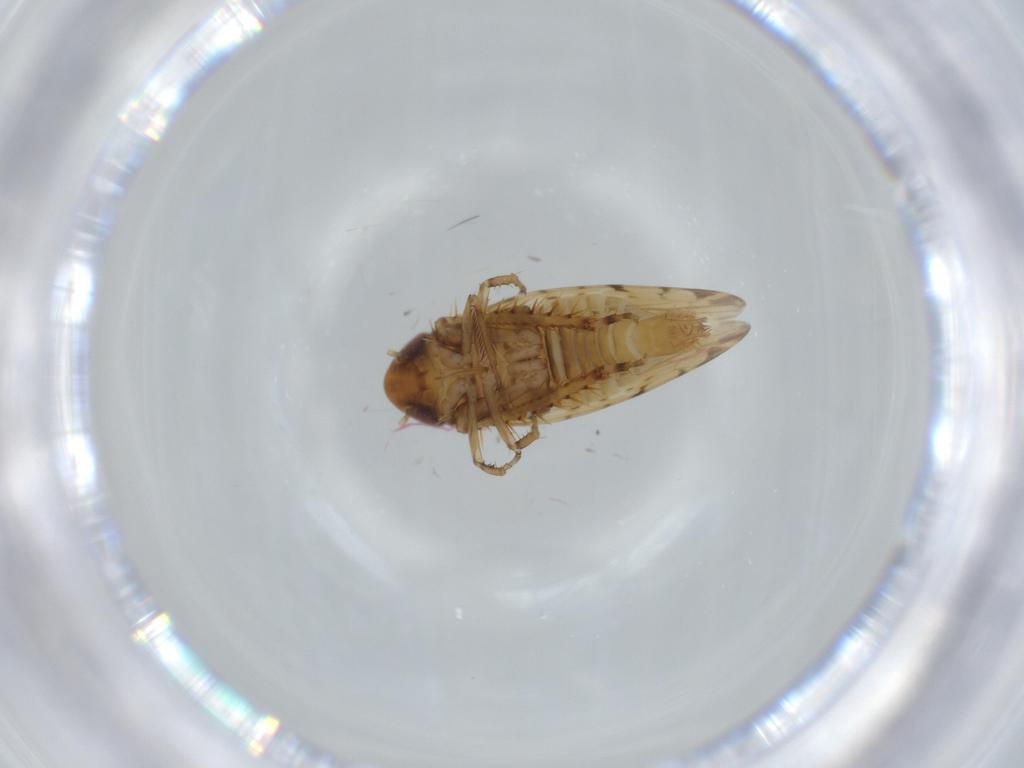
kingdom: Animalia
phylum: Arthropoda
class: Insecta
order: Hemiptera
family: Cicadellidae
